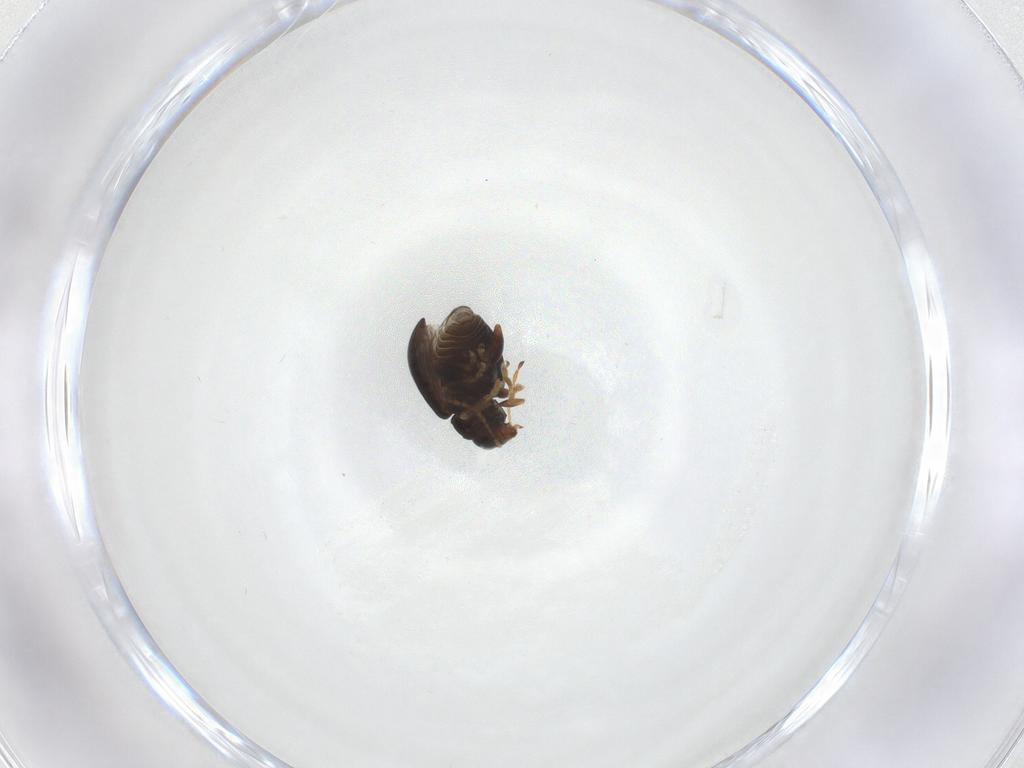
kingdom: Animalia
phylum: Arthropoda
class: Insecta
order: Coleoptera
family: Chrysomelidae
